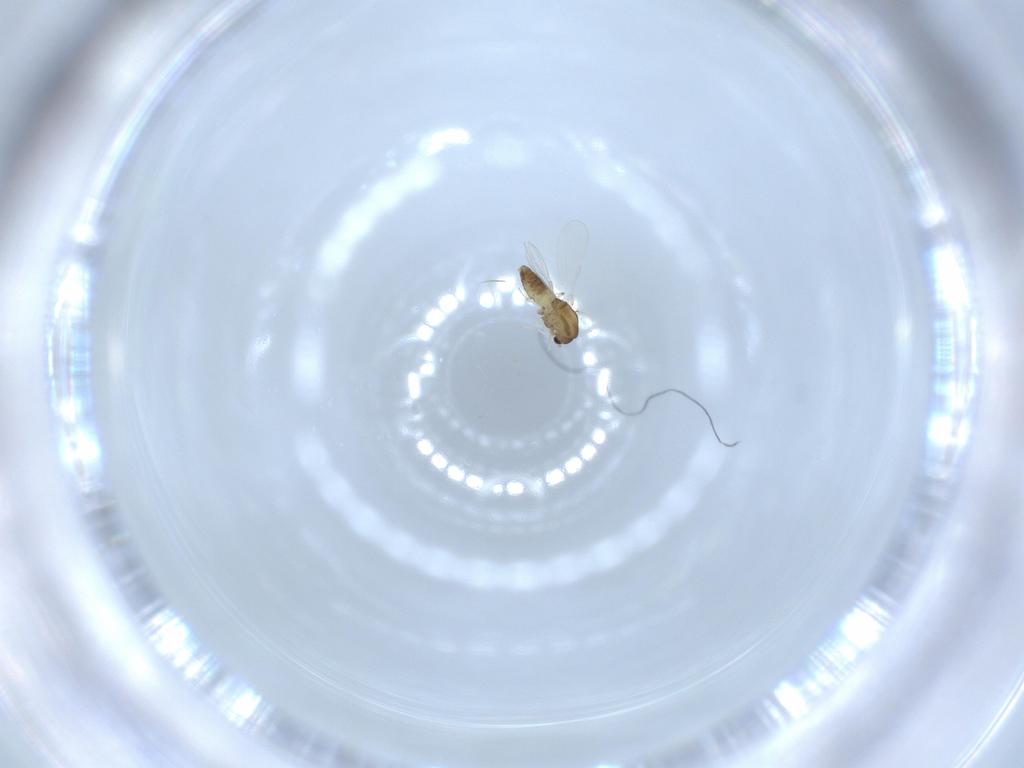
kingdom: Animalia
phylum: Arthropoda
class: Insecta
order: Diptera
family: Chironomidae
